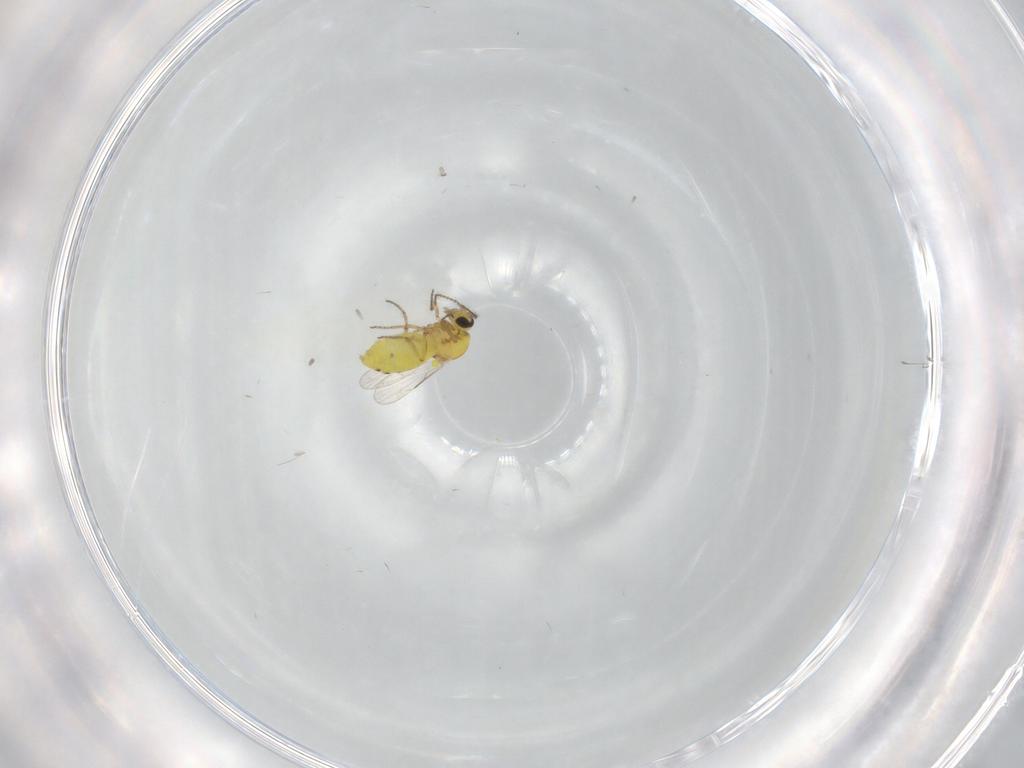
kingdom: Animalia
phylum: Arthropoda
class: Insecta
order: Diptera
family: Ceratopogonidae
